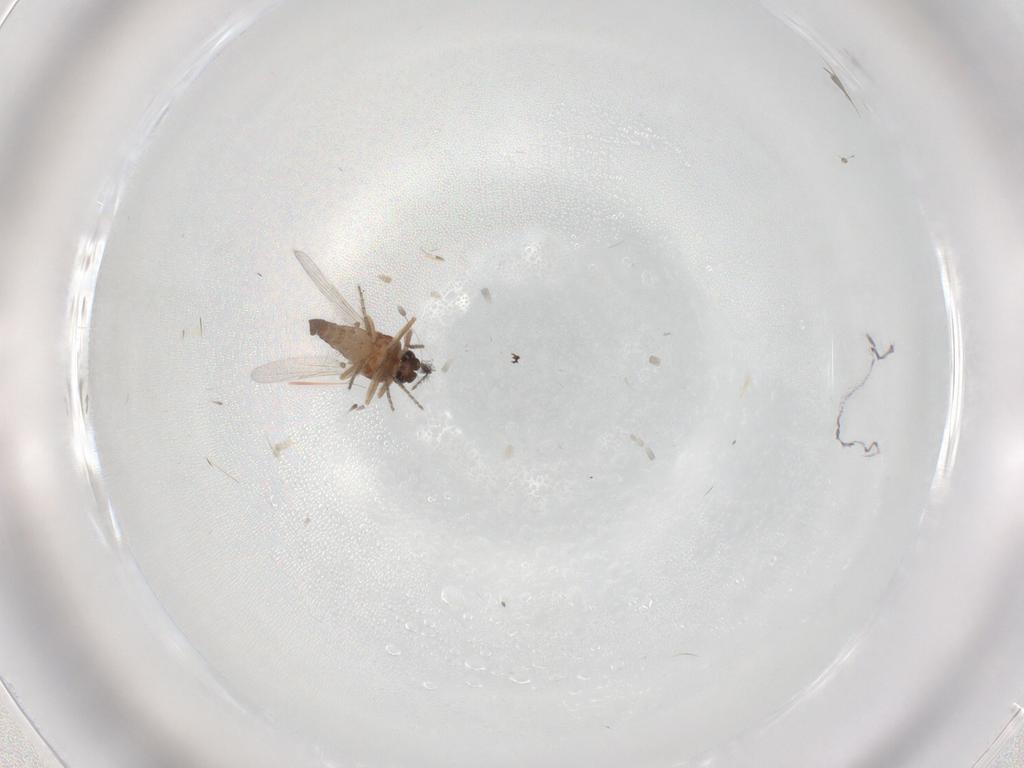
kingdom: Animalia
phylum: Arthropoda
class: Insecta
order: Diptera
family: Ceratopogonidae
